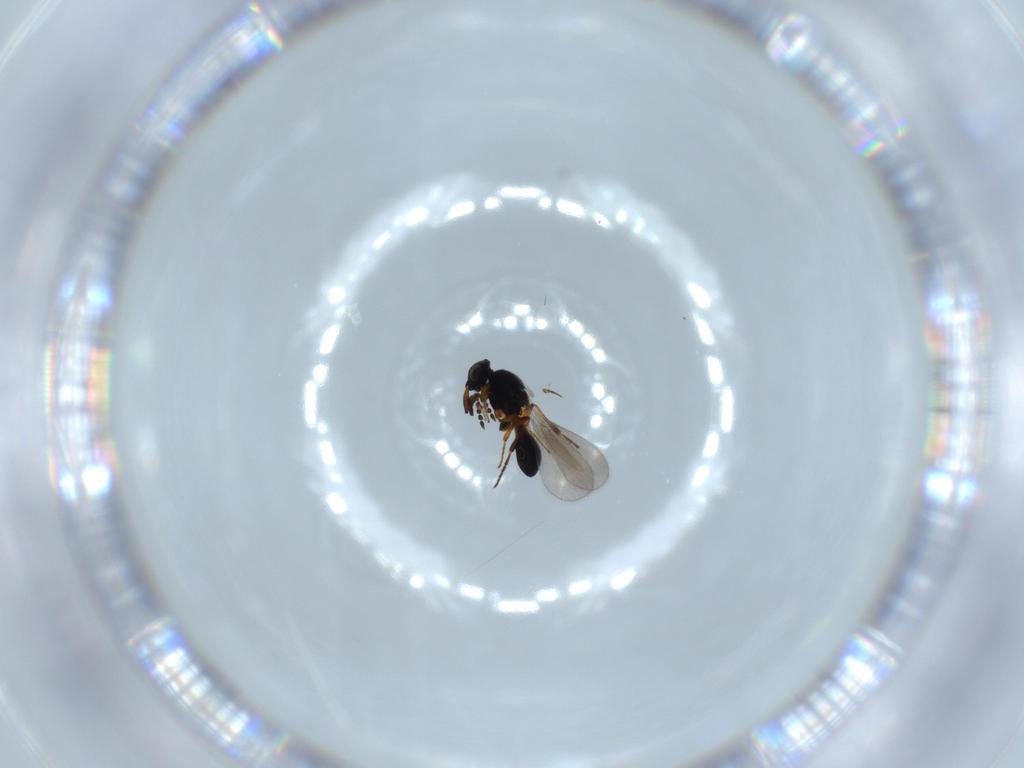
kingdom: Animalia
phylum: Arthropoda
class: Insecta
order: Hymenoptera
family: Platygastridae
